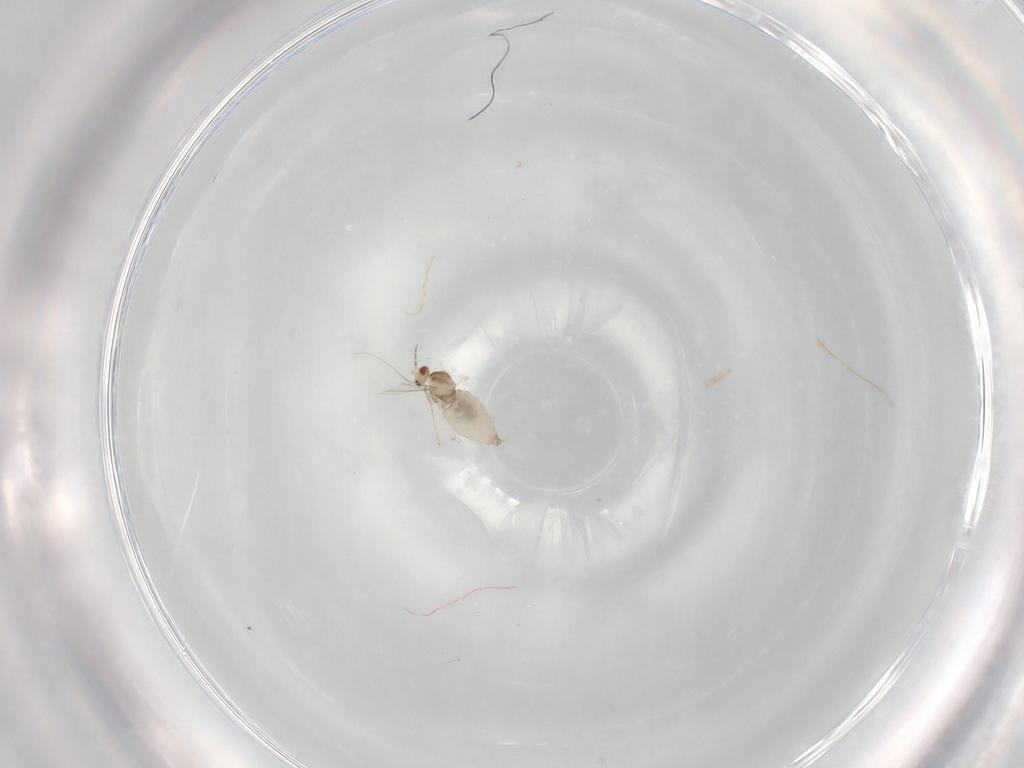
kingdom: Animalia
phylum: Arthropoda
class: Insecta
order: Diptera
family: Cecidomyiidae
